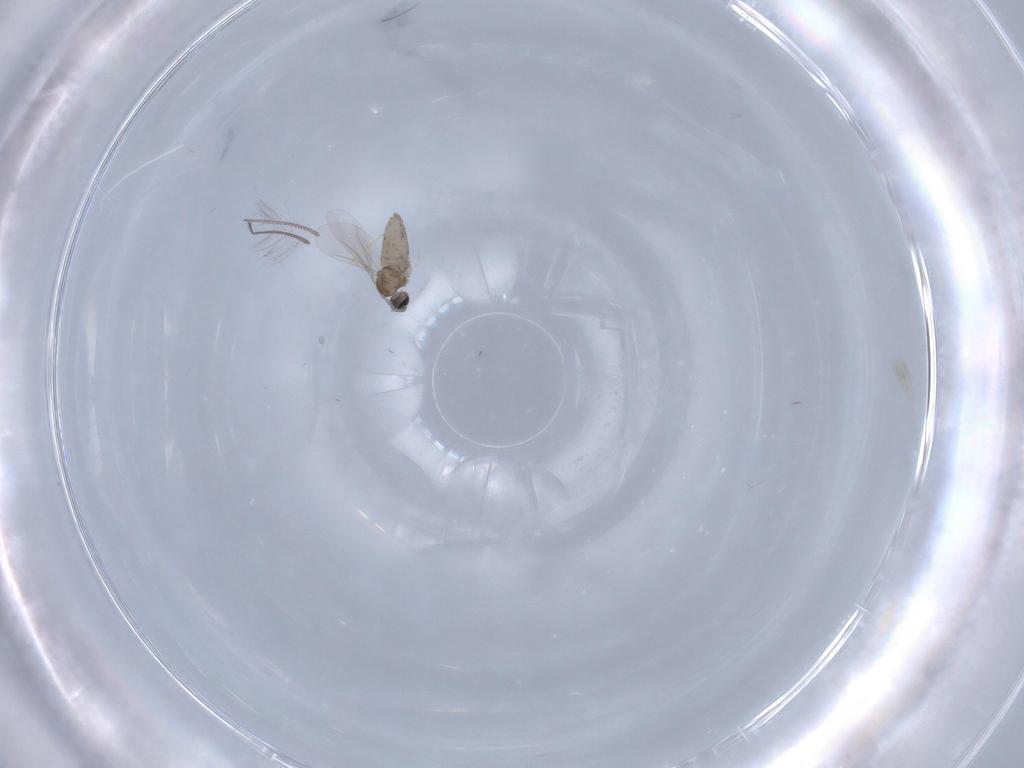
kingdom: Animalia
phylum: Arthropoda
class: Insecta
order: Diptera
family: Cecidomyiidae
